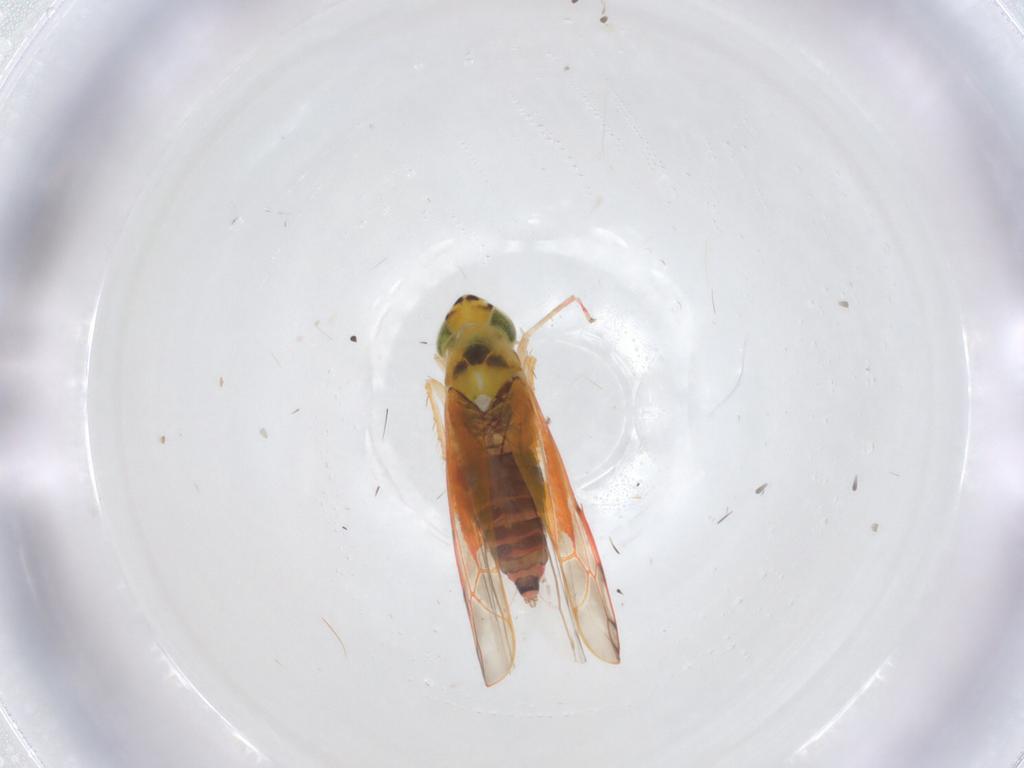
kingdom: Animalia
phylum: Arthropoda
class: Insecta
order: Hemiptera
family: Cicadellidae
